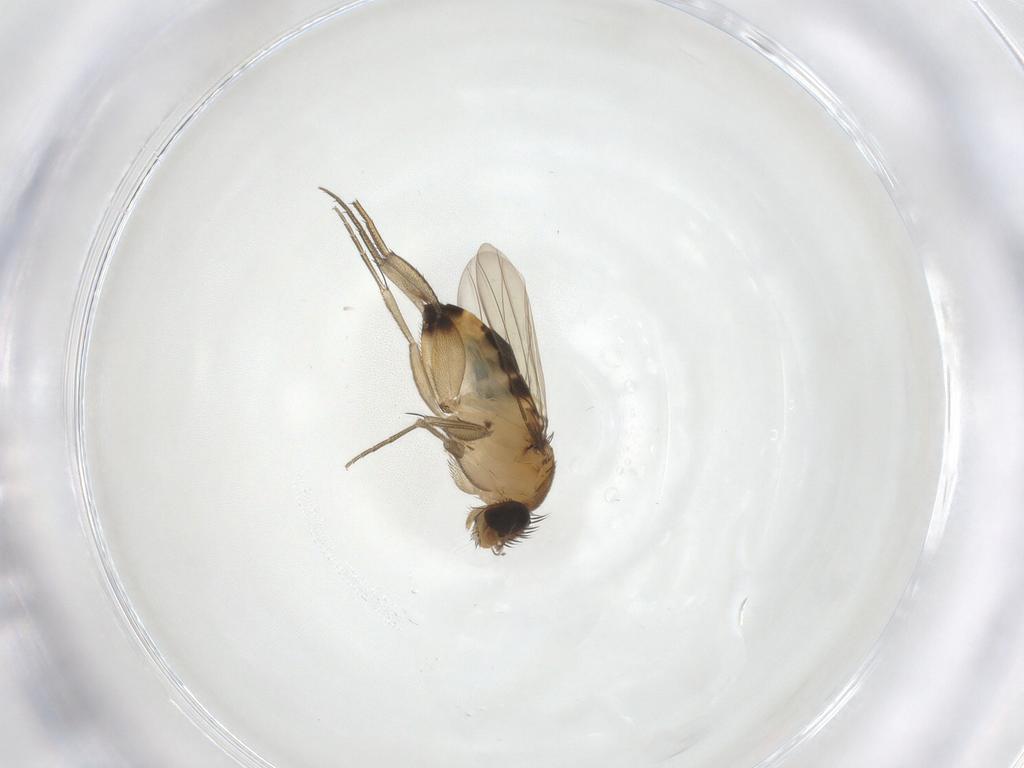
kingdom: Animalia
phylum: Arthropoda
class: Insecta
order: Diptera
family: Phoridae
